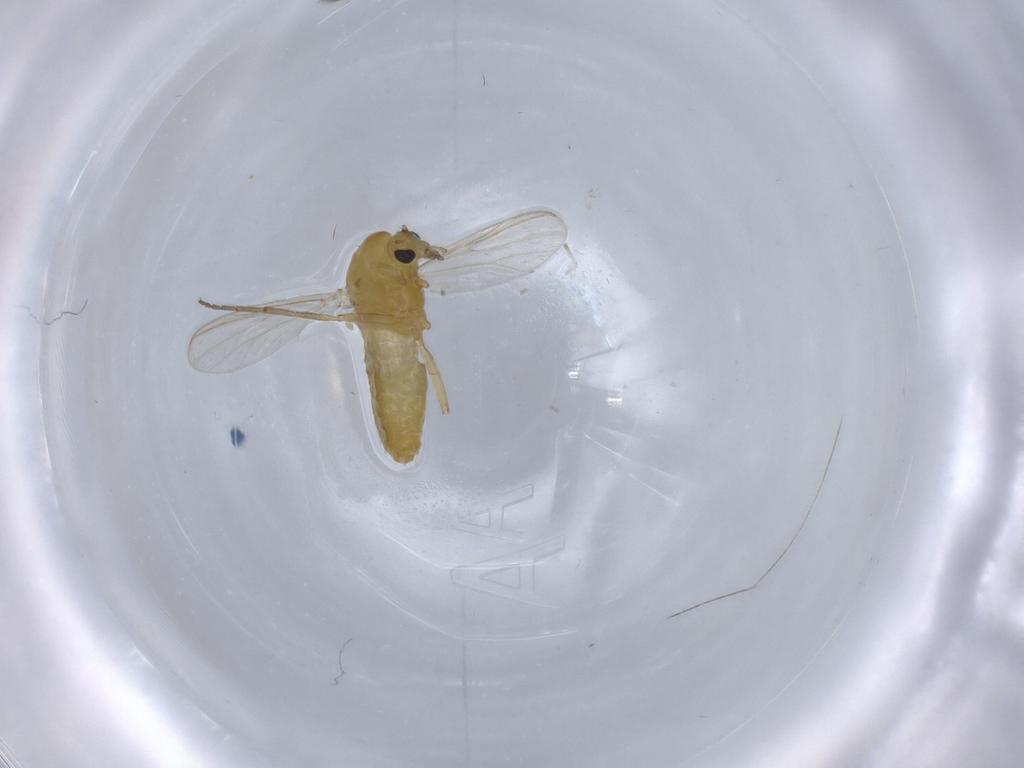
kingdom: Animalia
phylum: Arthropoda
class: Insecta
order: Diptera
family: Chironomidae
